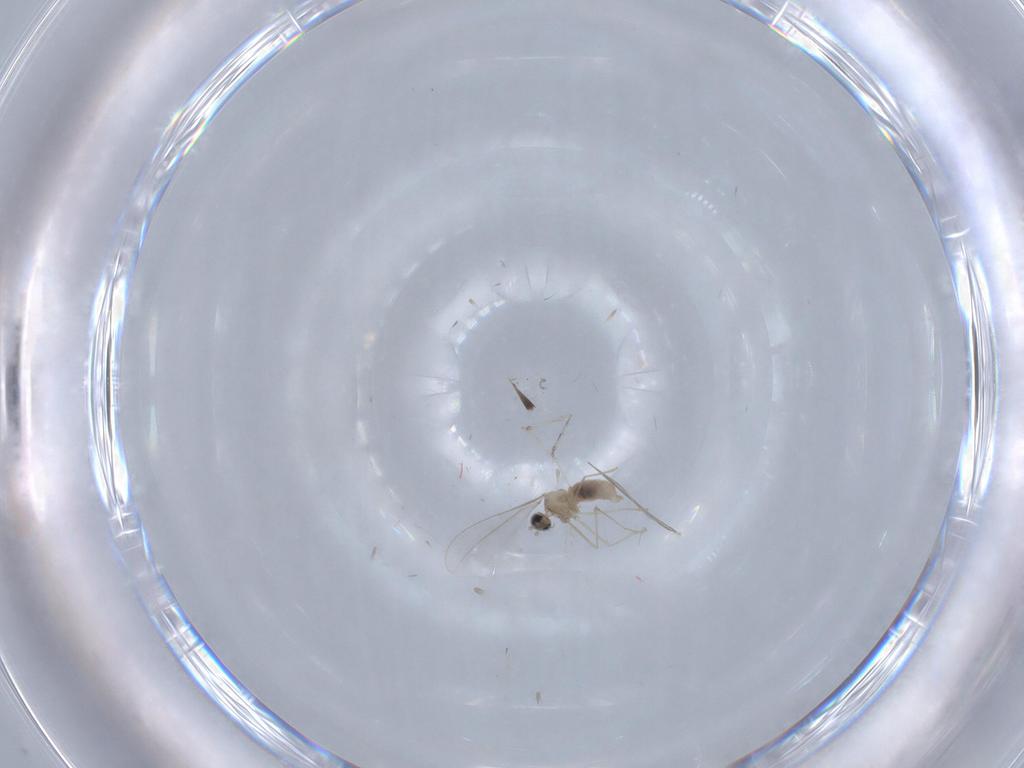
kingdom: Animalia
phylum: Arthropoda
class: Insecta
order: Diptera
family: Cecidomyiidae
